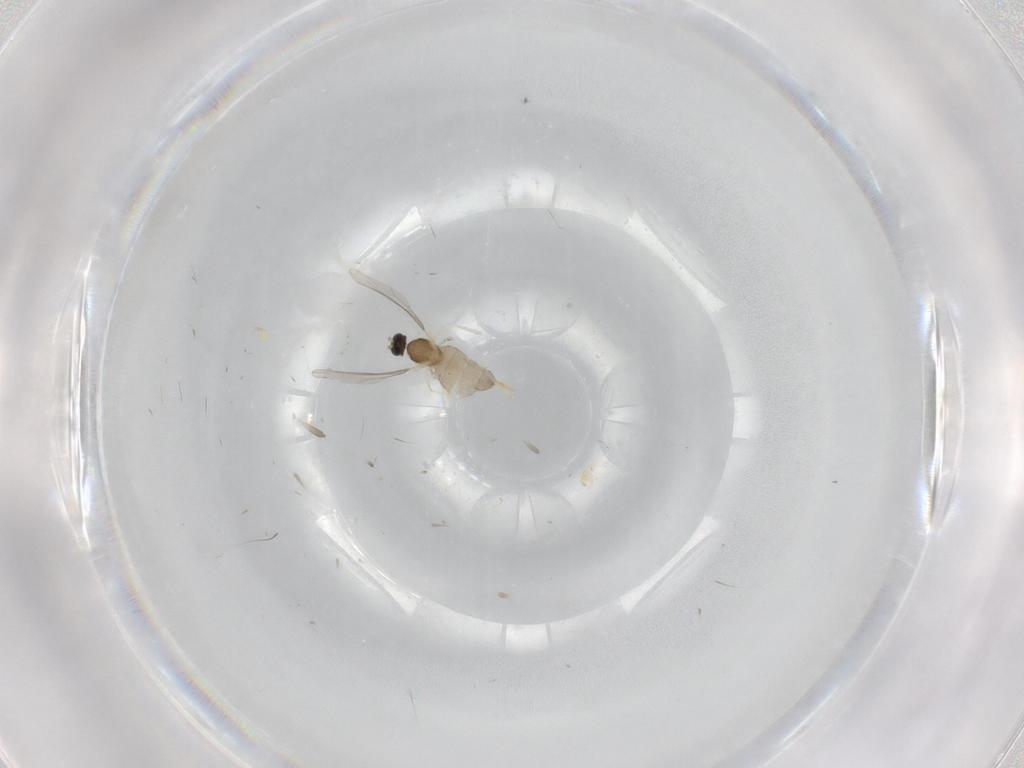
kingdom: Animalia
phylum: Arthropoda
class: Insecta
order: Diptera
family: Cecidomyiidae
